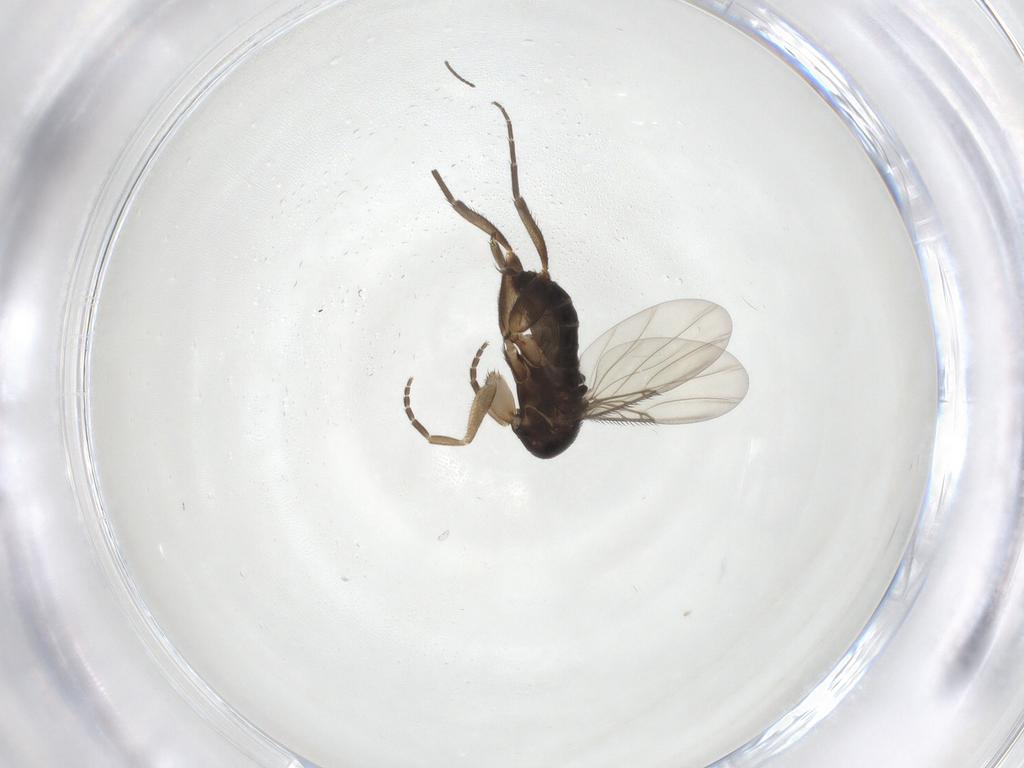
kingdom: Animalia
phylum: Arthropoda
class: Insecta
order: Diptera
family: Phoridae
